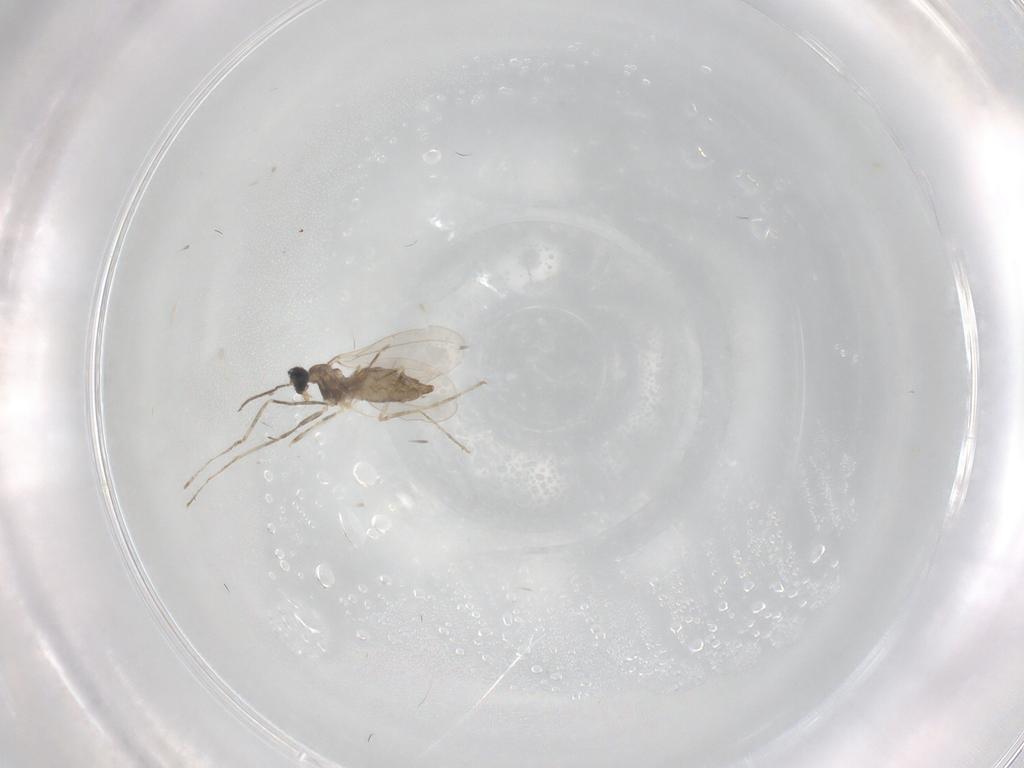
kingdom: Animalia
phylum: Arthropoda
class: Insecta
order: Diptera
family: Cecidomyiidae
